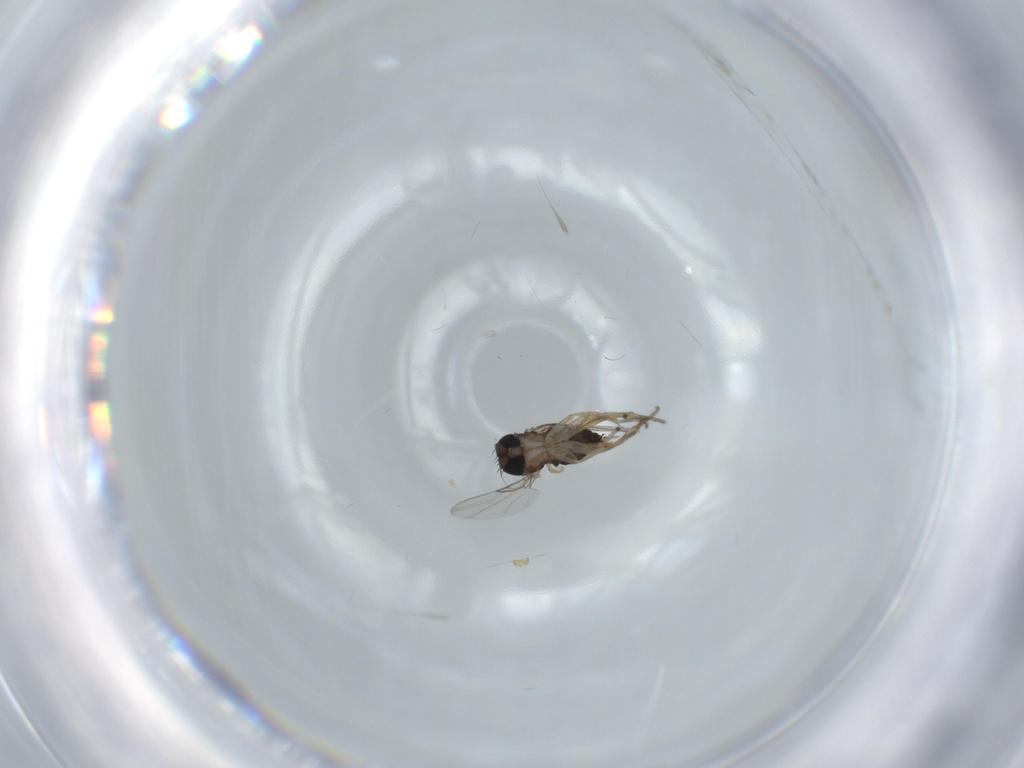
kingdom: Animalia
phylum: Arthropoda
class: Insecta
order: Diptera
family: Phoridae
